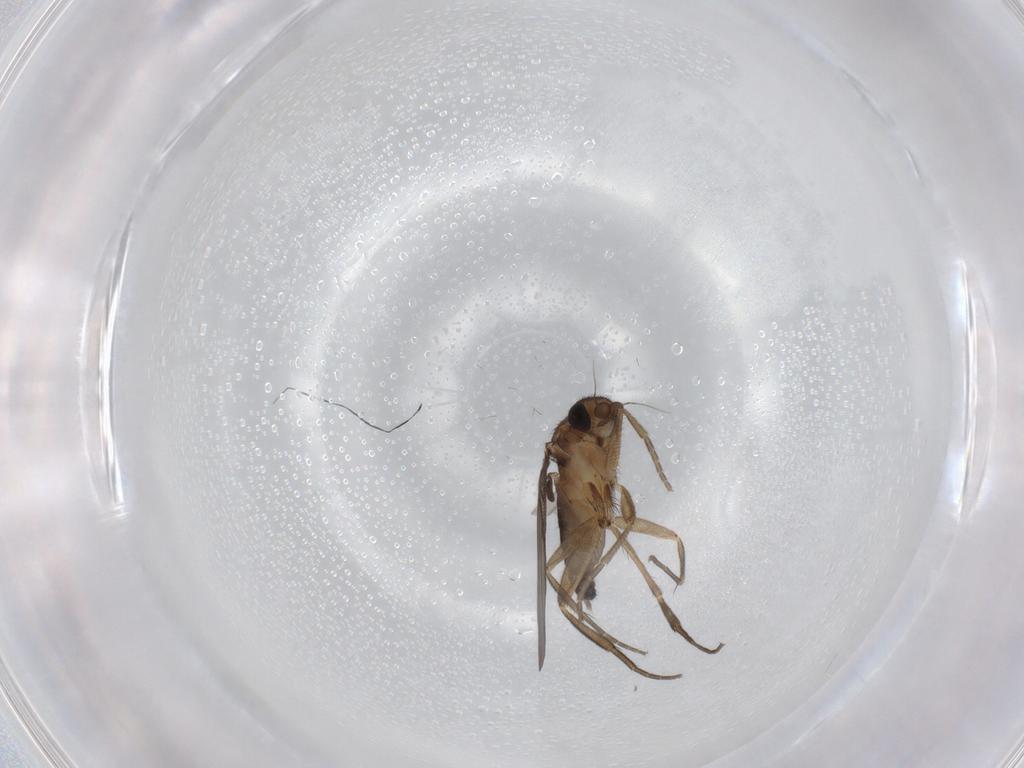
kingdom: Animalia
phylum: Arthropoda
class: Insecta
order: Diptera
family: Phoridae
